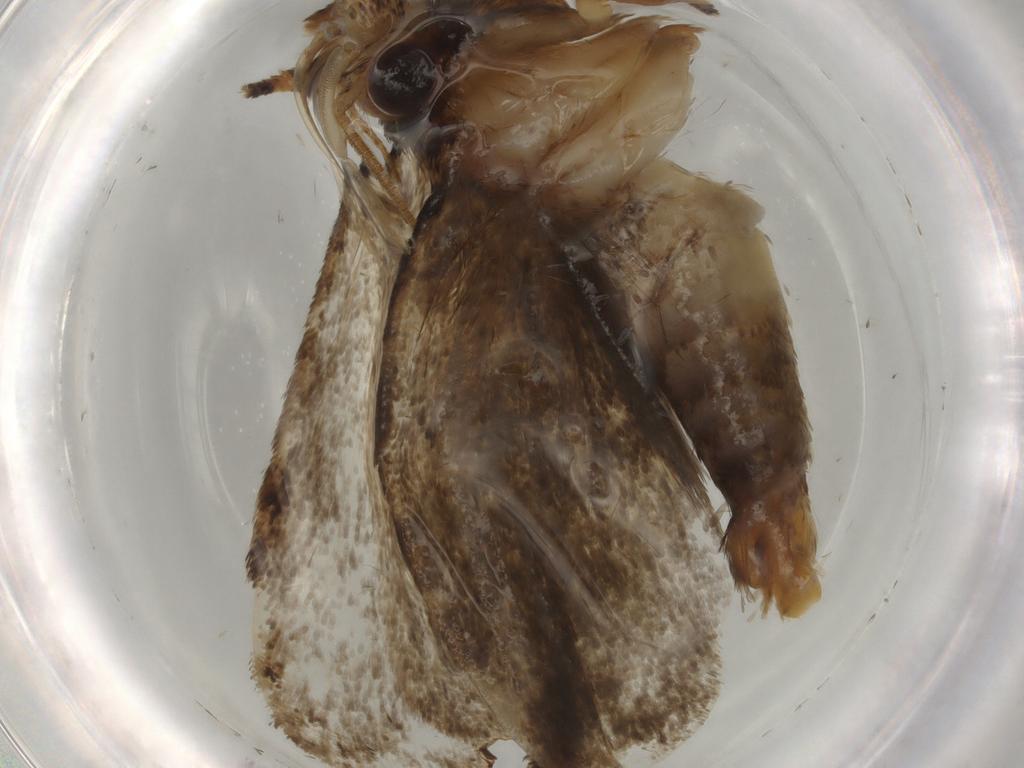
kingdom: Animalia
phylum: Arthropoda
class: Insecta
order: Lepidoptera
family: Tineidae
